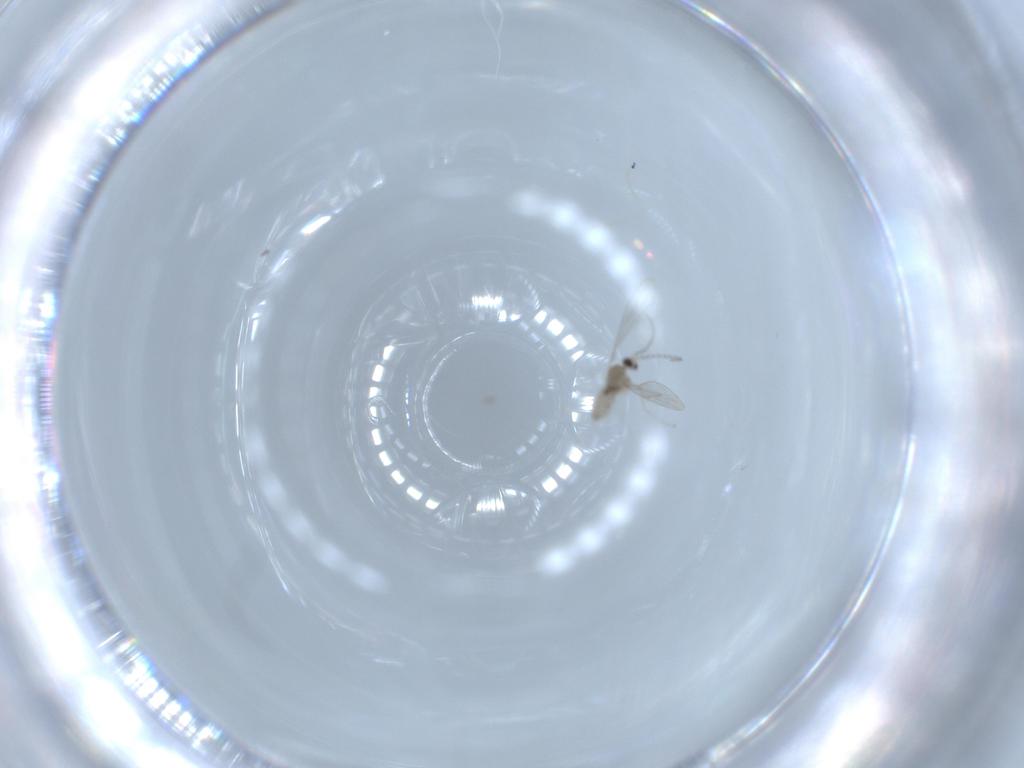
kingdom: Animalia
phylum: Arthropoda
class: Insecta
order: Diptera
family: Cecidomyiidae
